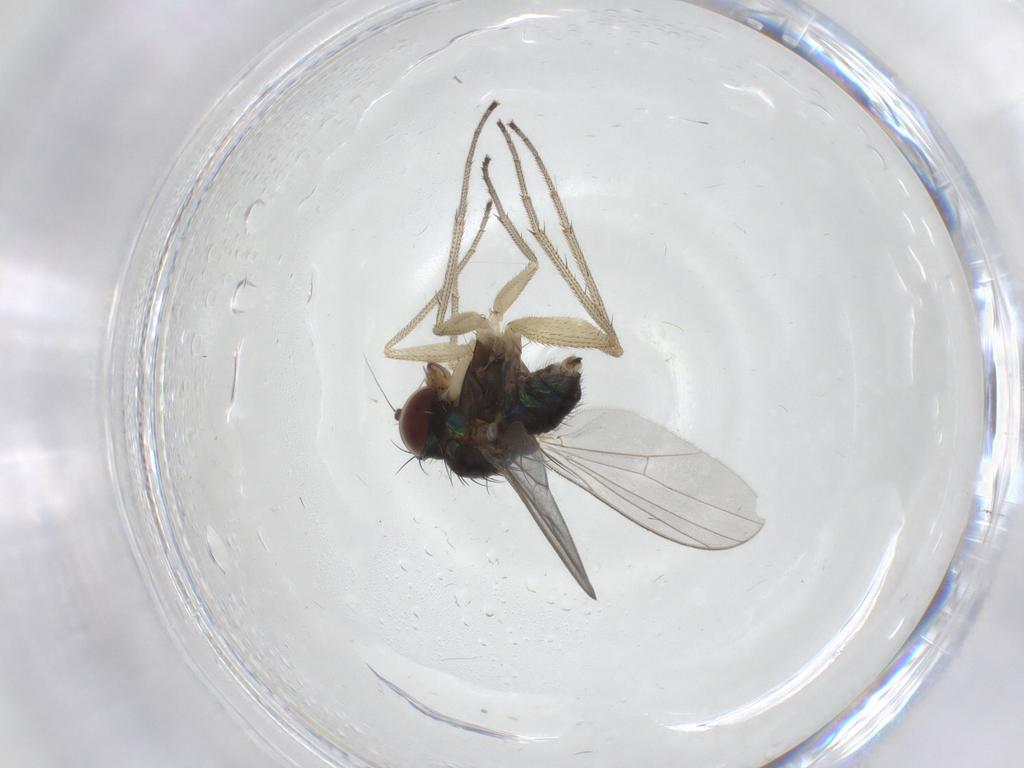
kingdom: Animalia
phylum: Arthropoda
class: Insecta
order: Diptera
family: Dolichopodidae
